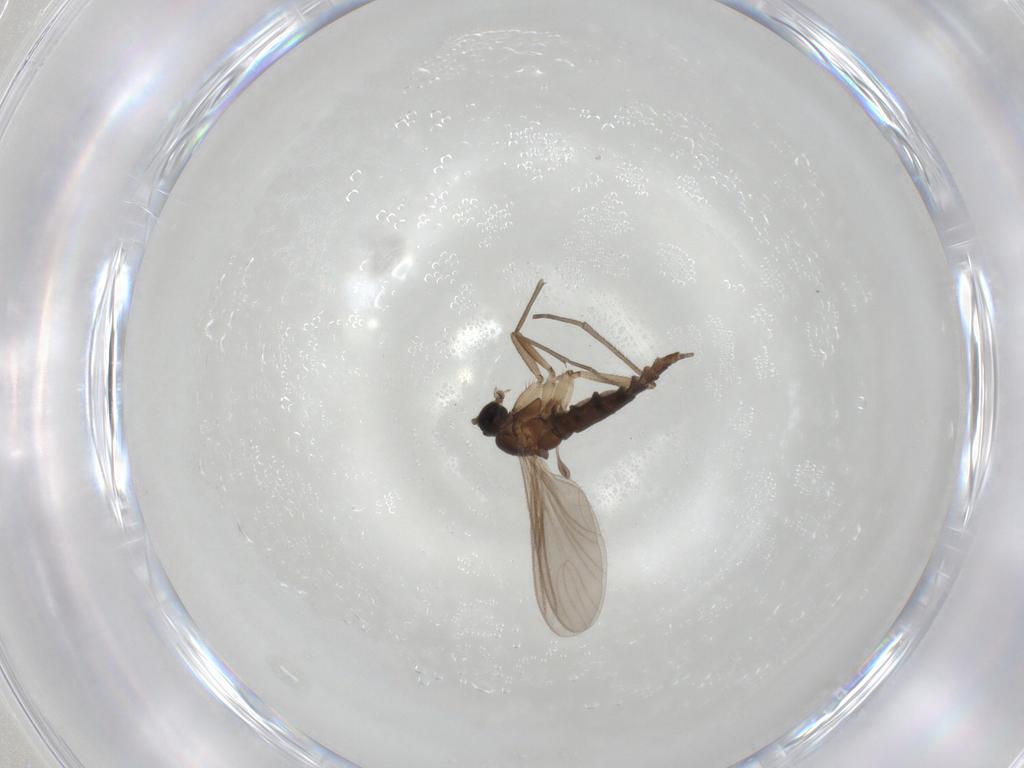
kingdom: Animalia
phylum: Arthropoda
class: Insecta
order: Diptera
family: Sciaridae
